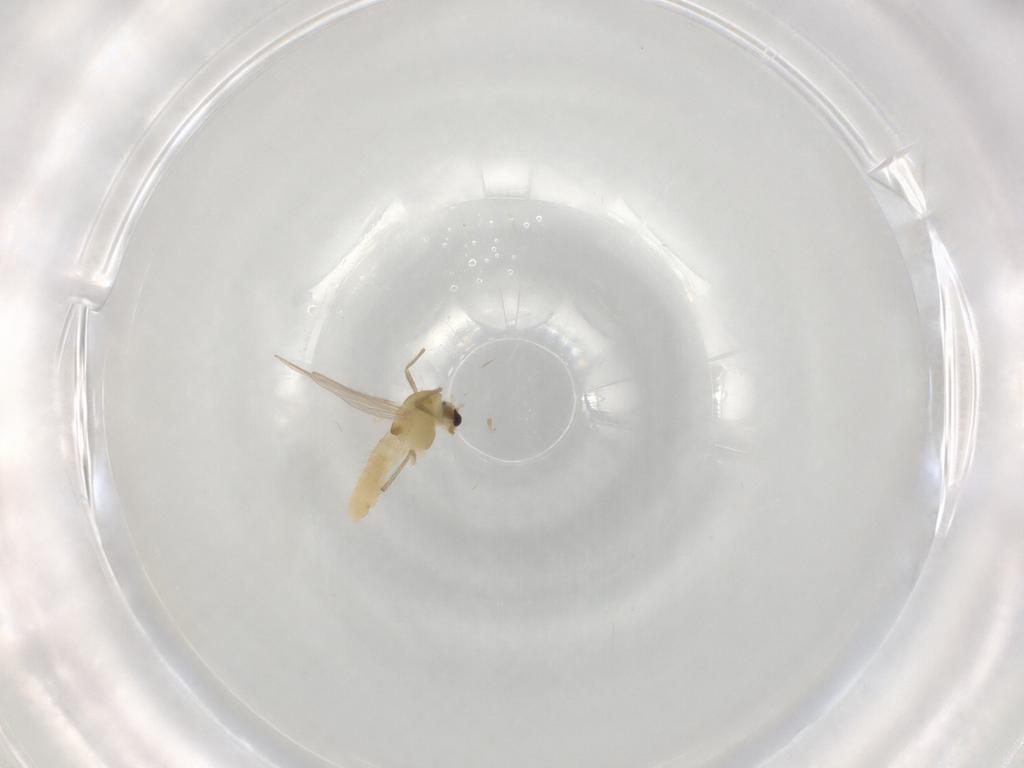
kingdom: Animalia
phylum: Arthropoda
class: Insecta
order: Diptera
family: Chironomidae
